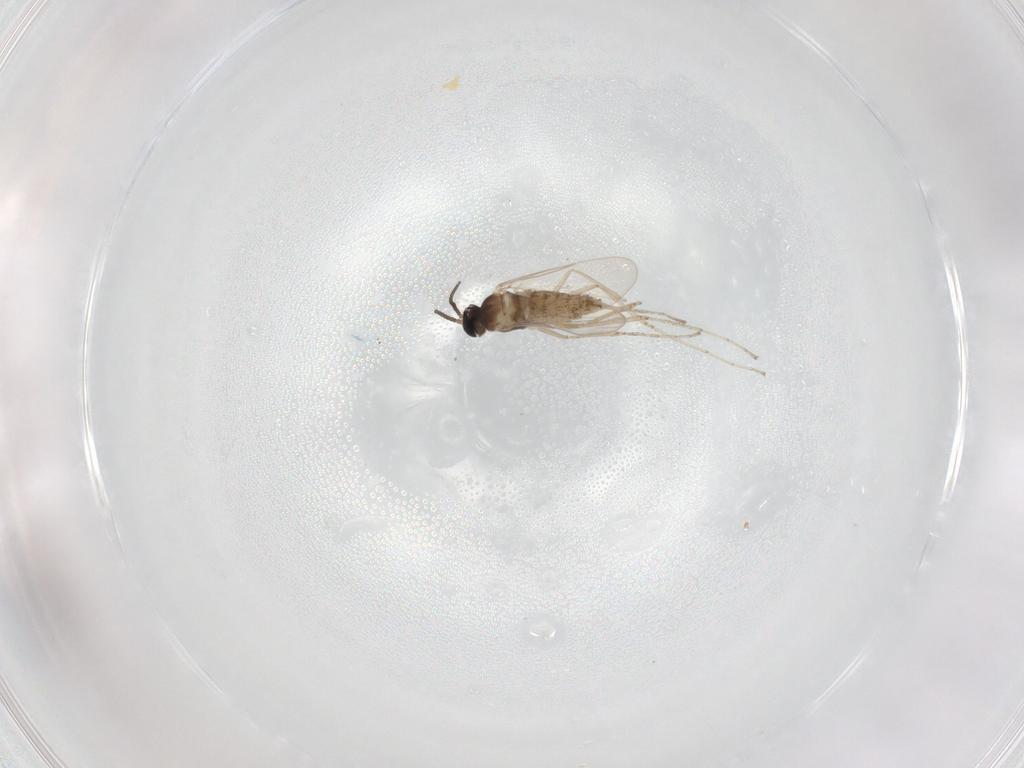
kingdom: Animalia
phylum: Arthropoda
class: Insecta
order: Diptera
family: Cecidomyiidae
